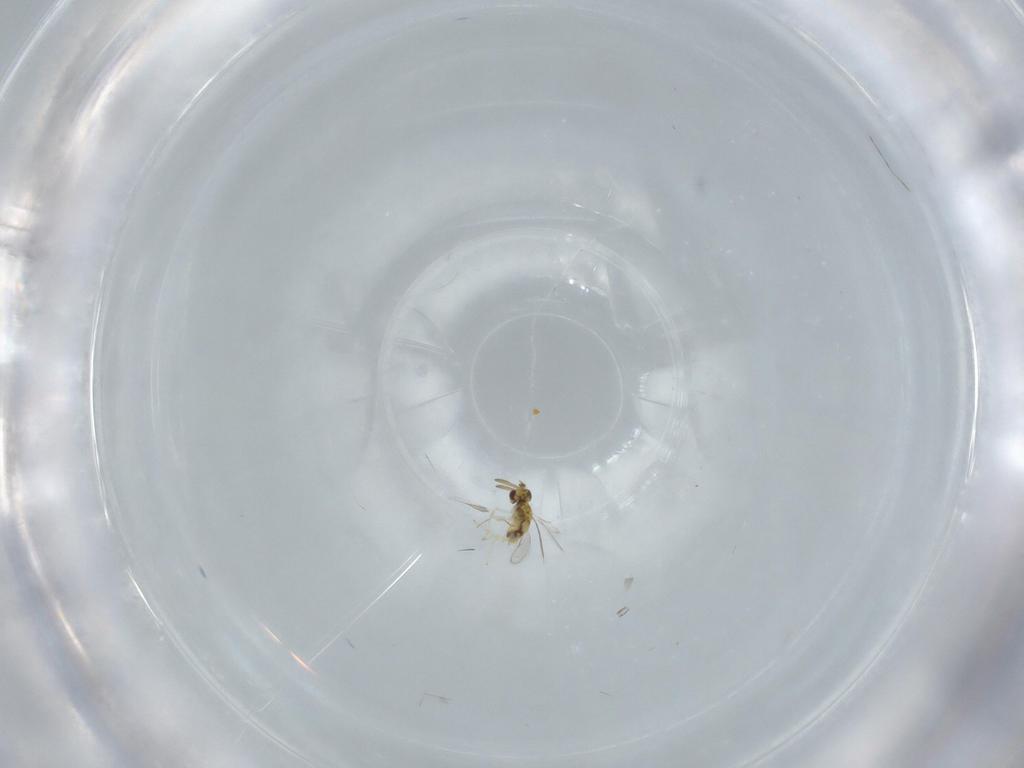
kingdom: Animalia
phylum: Arthropoda
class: Insecta
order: Hymenoptera
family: Aphelinidae
